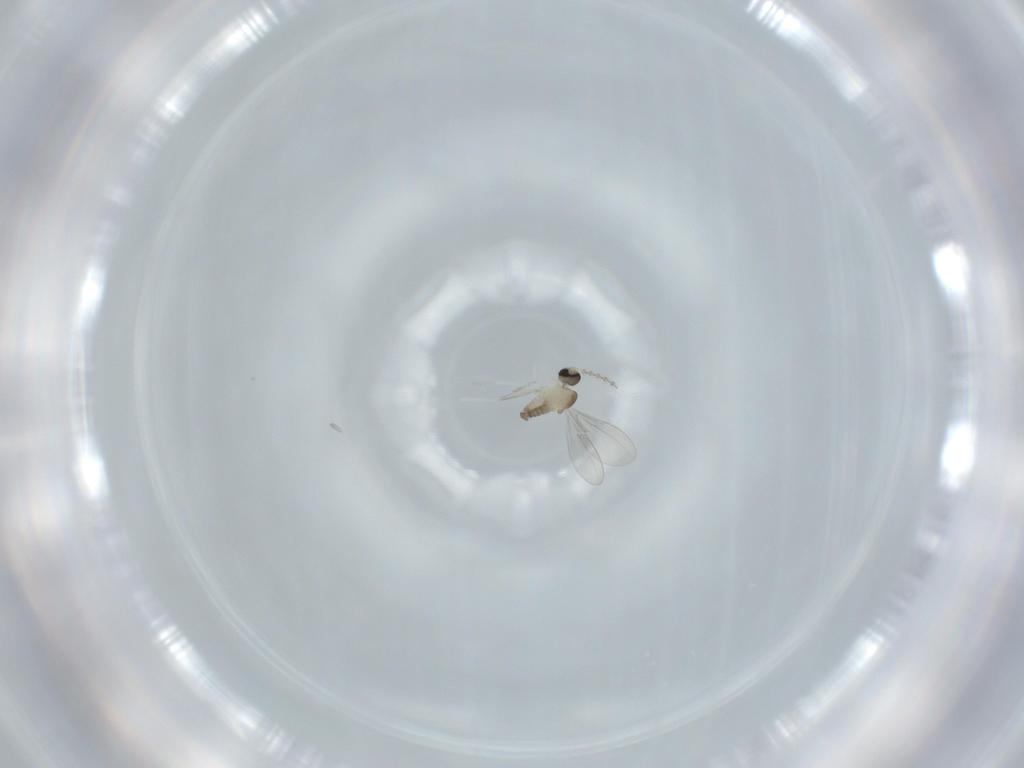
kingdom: Animalia
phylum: Arthropoda
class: Insecta
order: Diptera
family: Cecidomyiidae
